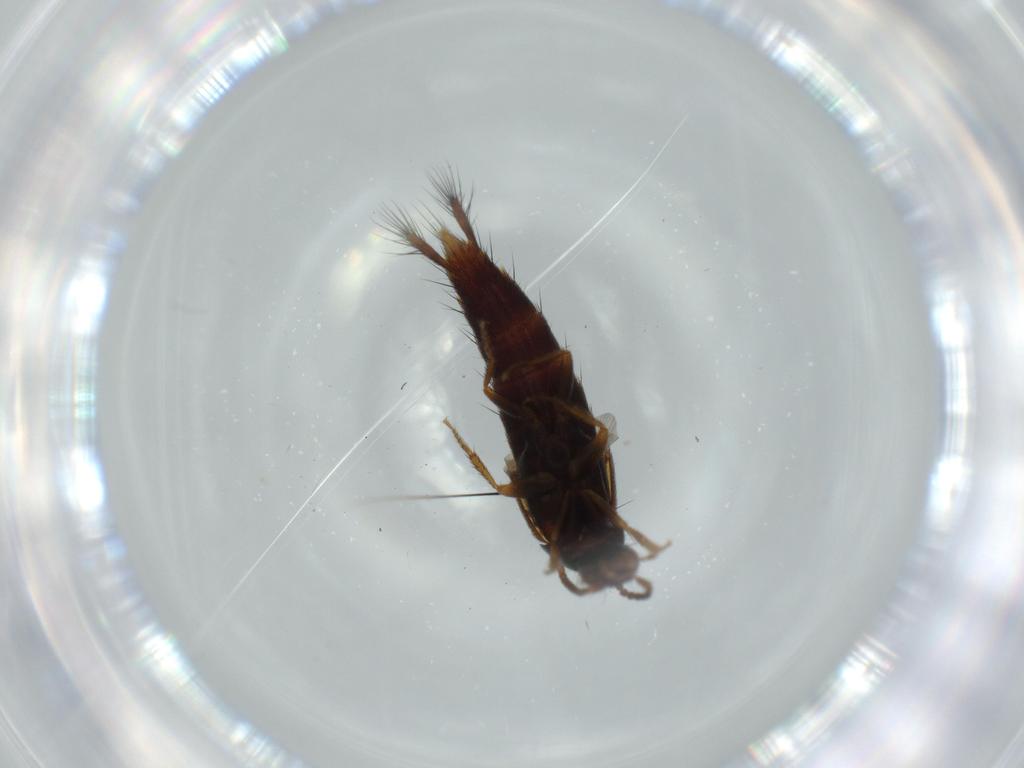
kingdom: Animalia
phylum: Arthropoda
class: Insecta
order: Coleoptera
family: Staphylinidae
